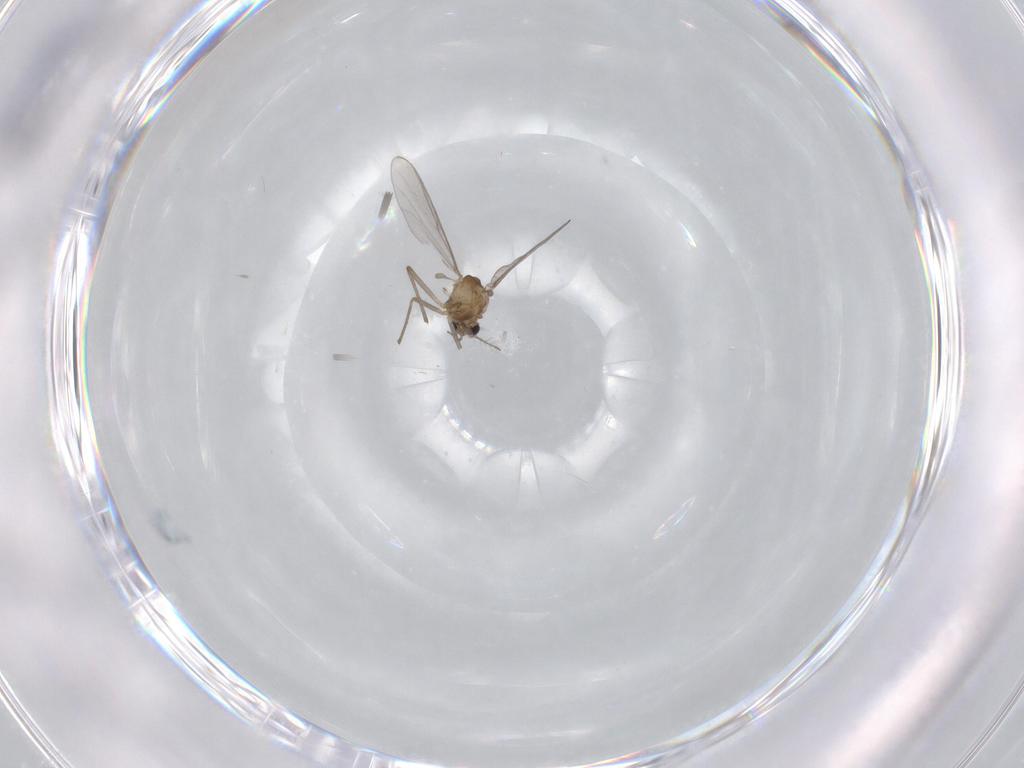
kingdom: Animalia
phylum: Arthropoda
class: Insecta
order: Diptera
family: Chironomidae
